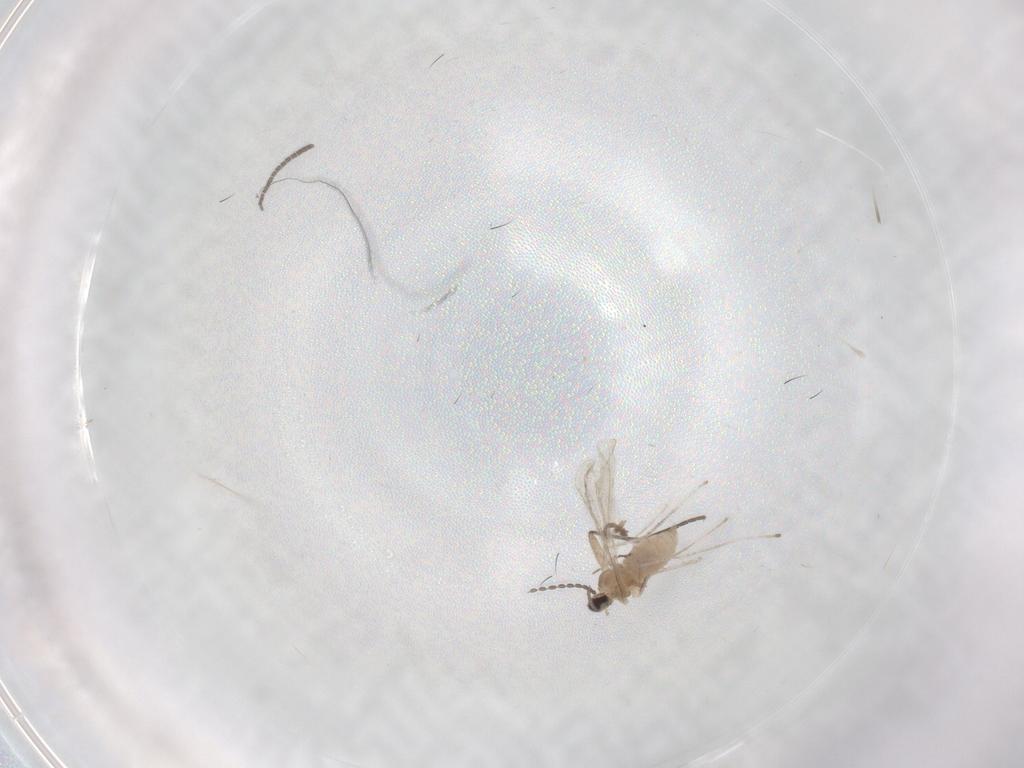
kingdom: Animalia
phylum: Arthropoda
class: Insecta
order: Diptera
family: Sciaridae
